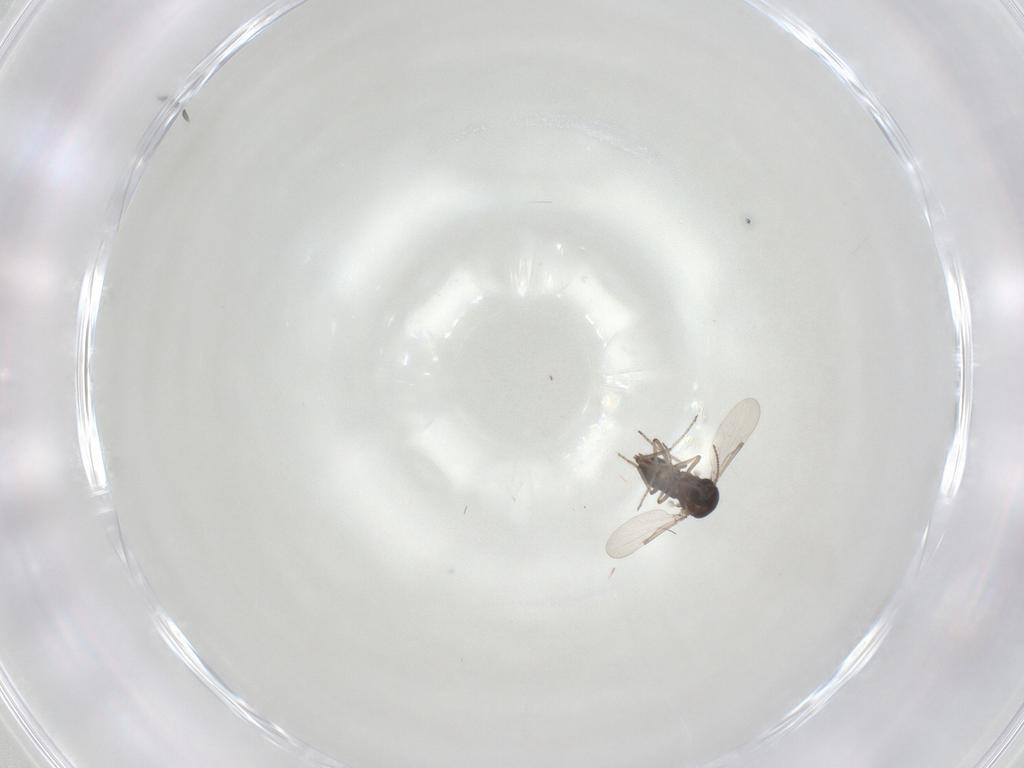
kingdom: Animalia
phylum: Arthropoda
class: Insecta
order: Diptera
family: Ceratopogonidae
